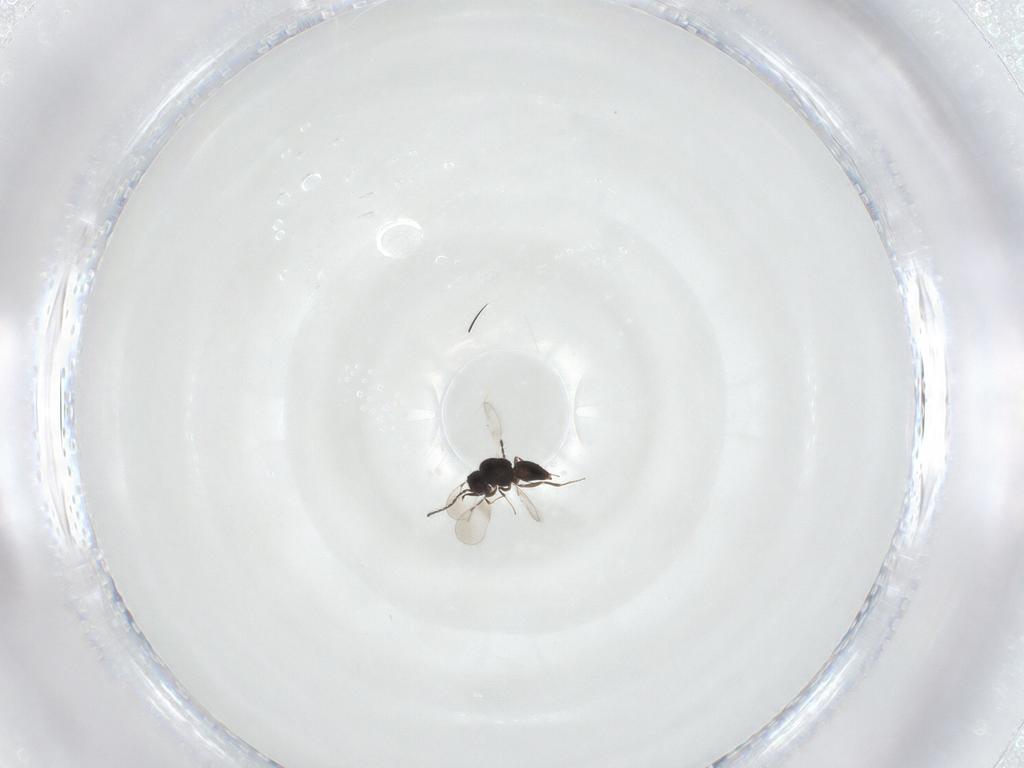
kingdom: Animalia
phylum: Arthropoda
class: Insecta
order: Hymenoptera
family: Ceraphronidae
